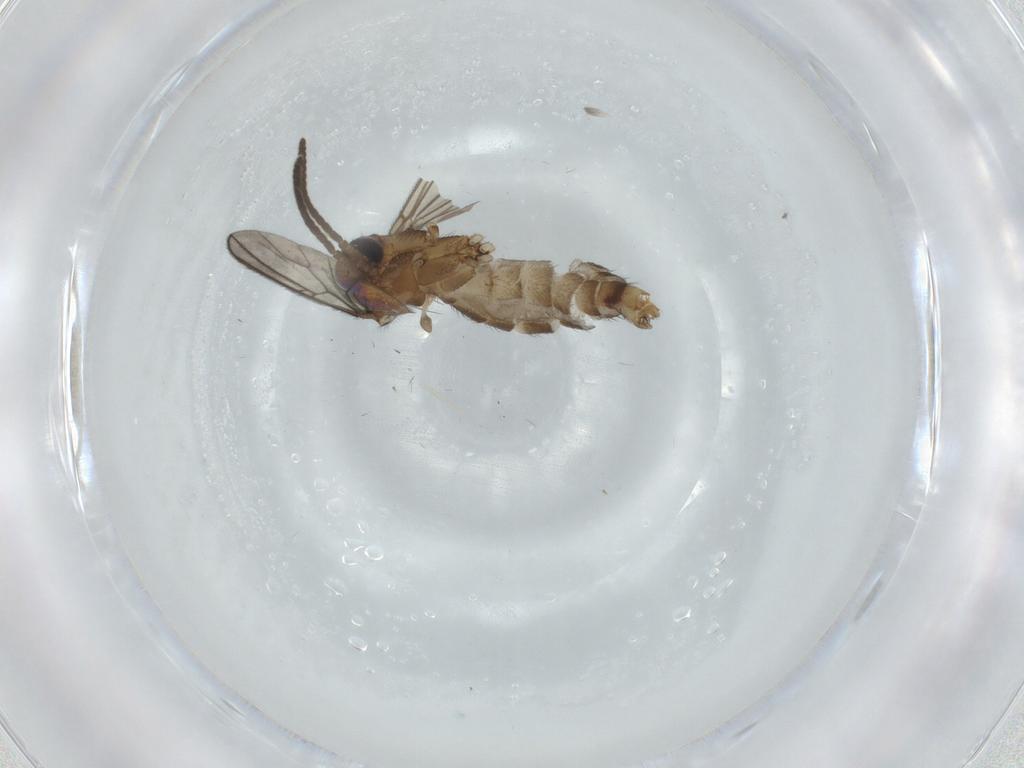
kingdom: Animalia
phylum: Arthropoda
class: Insecta
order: Diptera
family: Mycetophilidae
